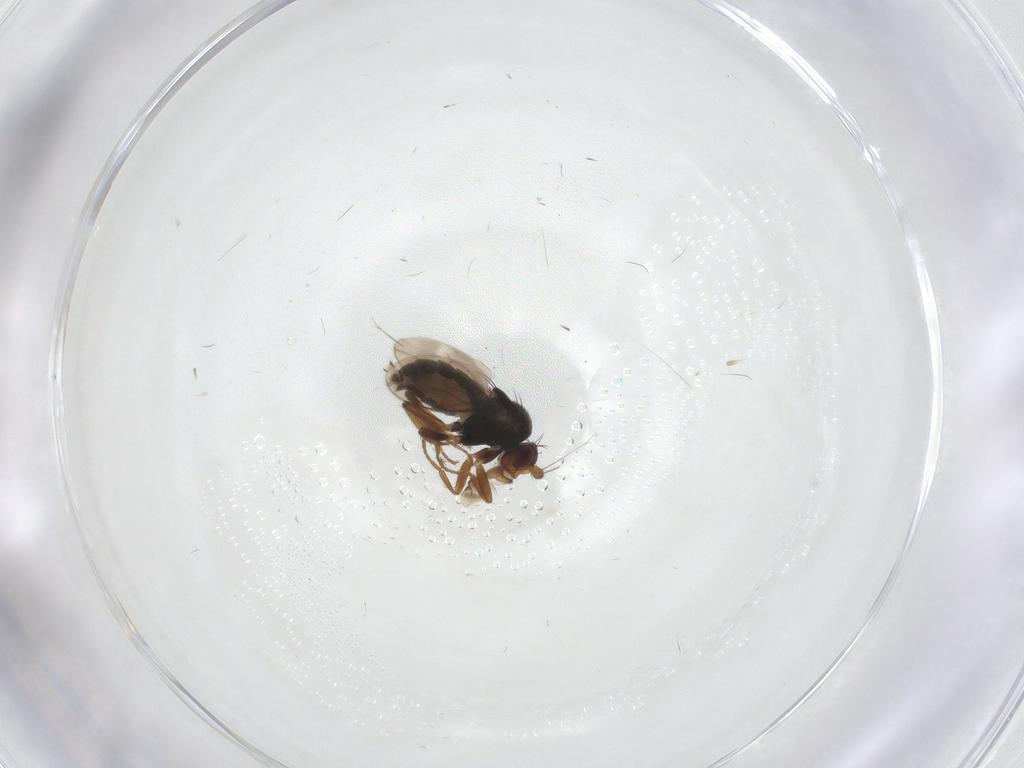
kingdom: Animalia
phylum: Arthropoda
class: Insecta
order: Diptera
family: Sphaeroceridae
